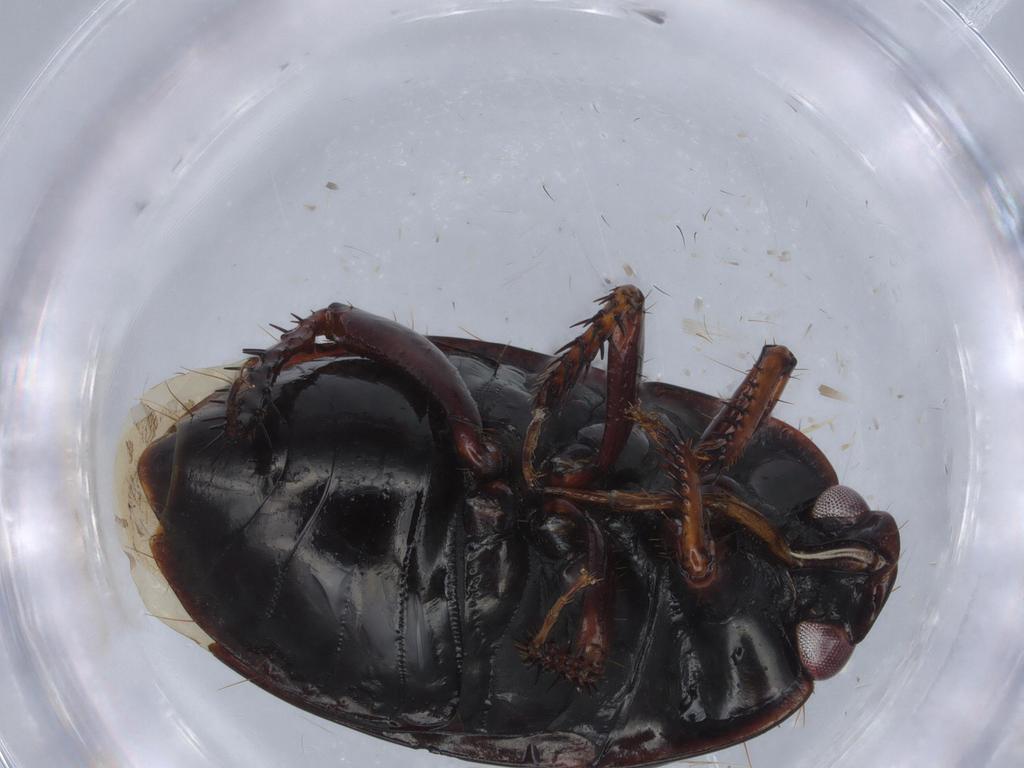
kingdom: Animalia
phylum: Arthropoda
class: Insecta
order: Hemiptera
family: Cydnidae
